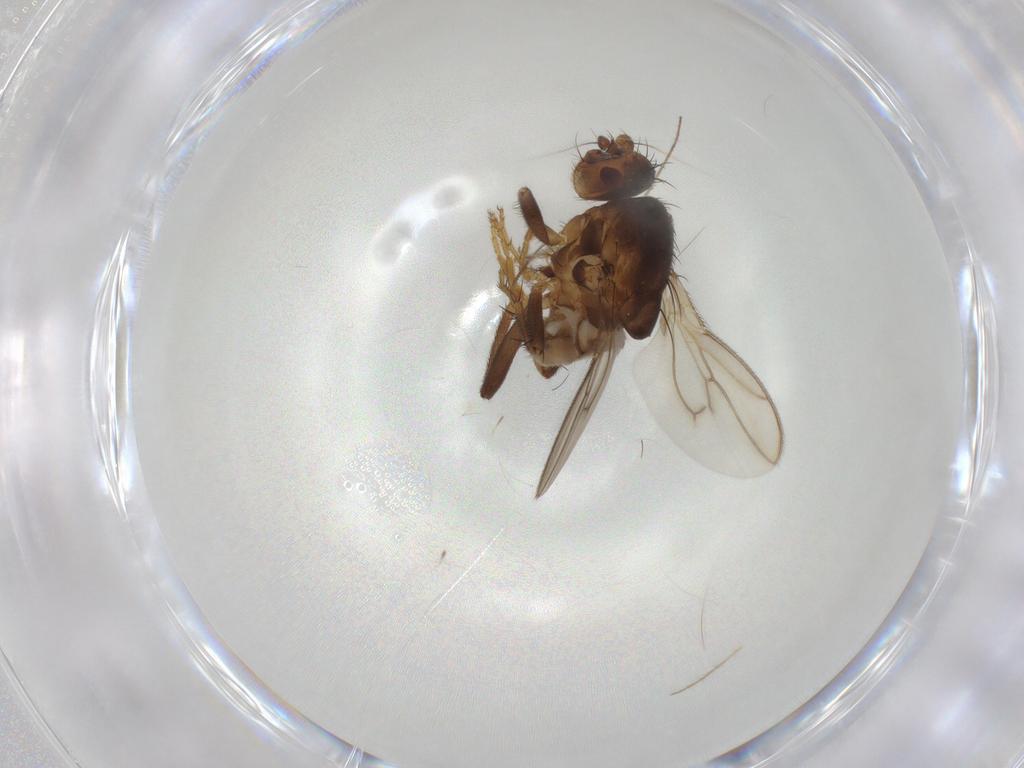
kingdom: Animalia
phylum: Arthropoda
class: Insecta
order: Diptera
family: Sphaeroceridae
